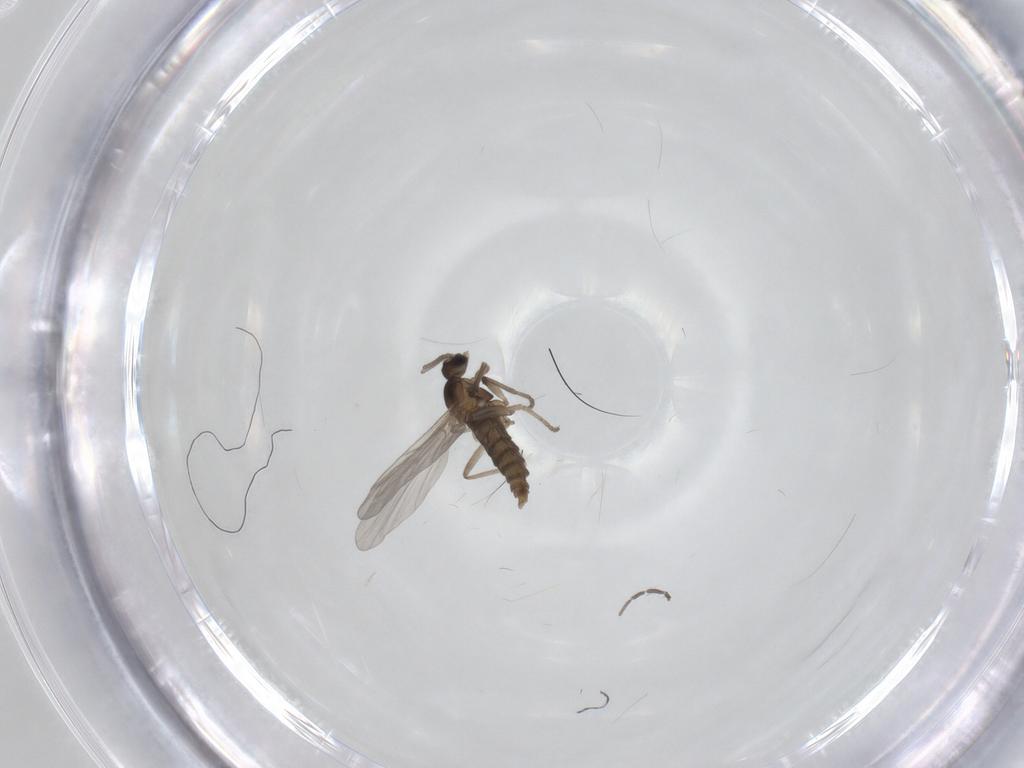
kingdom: Animalia
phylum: Arthropoda
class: Insecta
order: Diptera
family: Cecidomyiidae
